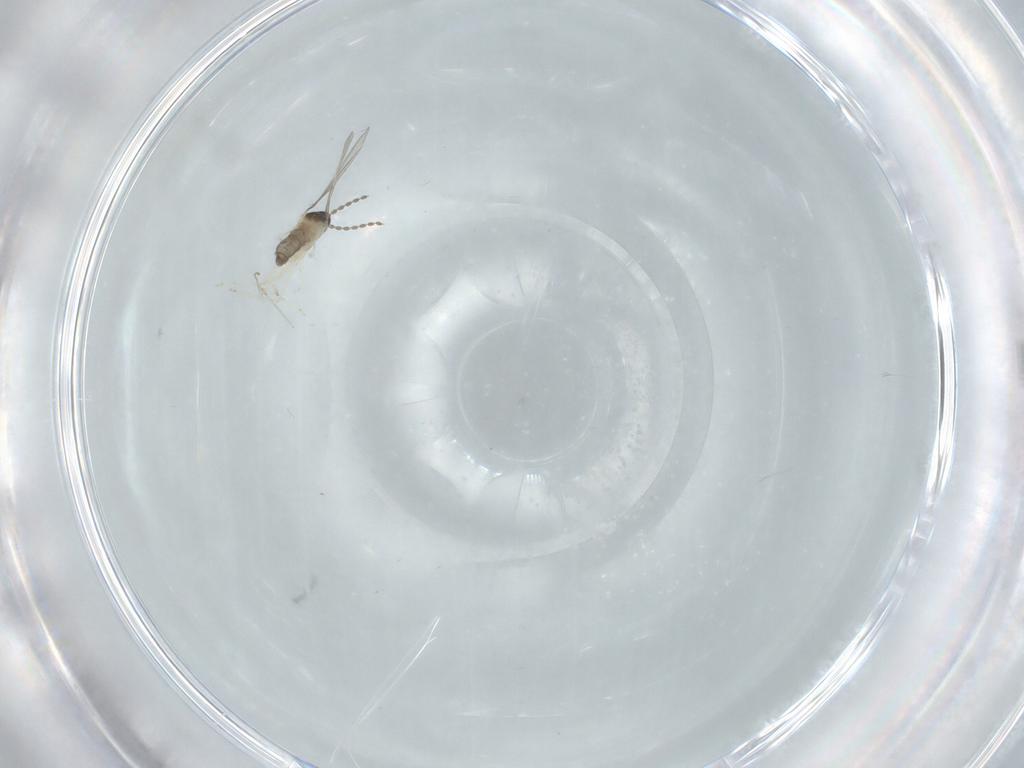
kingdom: Animalia
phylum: Arthropoda
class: Insecta
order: Diptera
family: Cecidomyiidae
